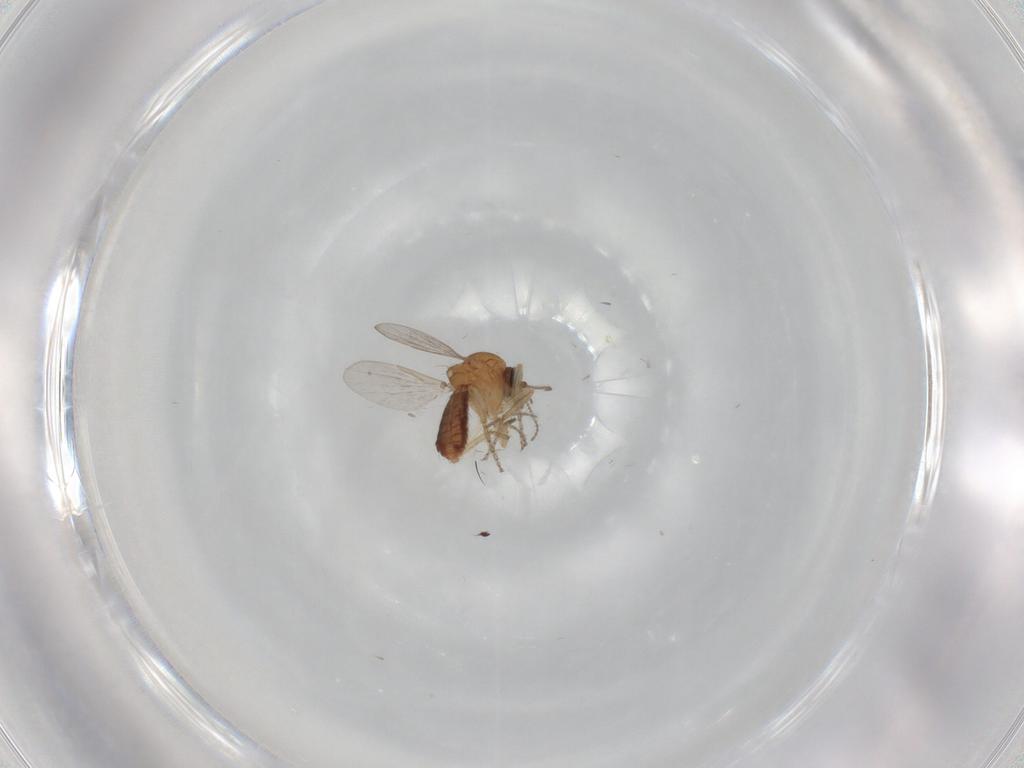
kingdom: Animalia
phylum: Arthropoda
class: Insecta
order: Diptera
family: Ceratopogonidae
